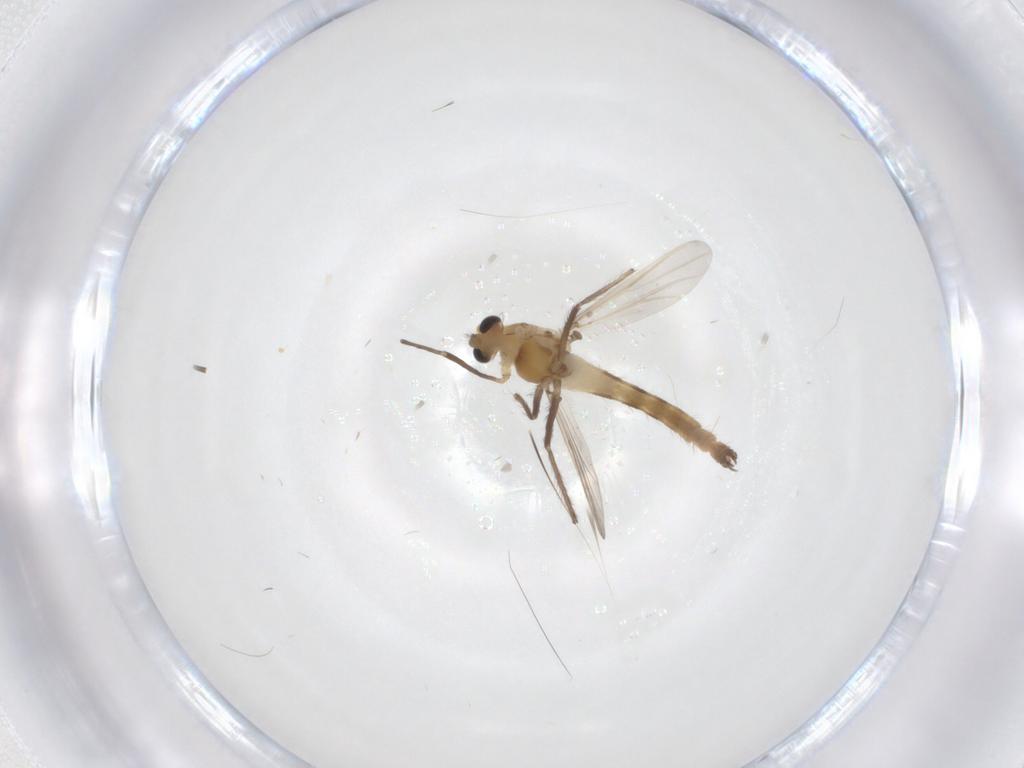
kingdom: Animalia
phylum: Arthropoda
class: Insecta
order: Diptera
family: Chironomidae
